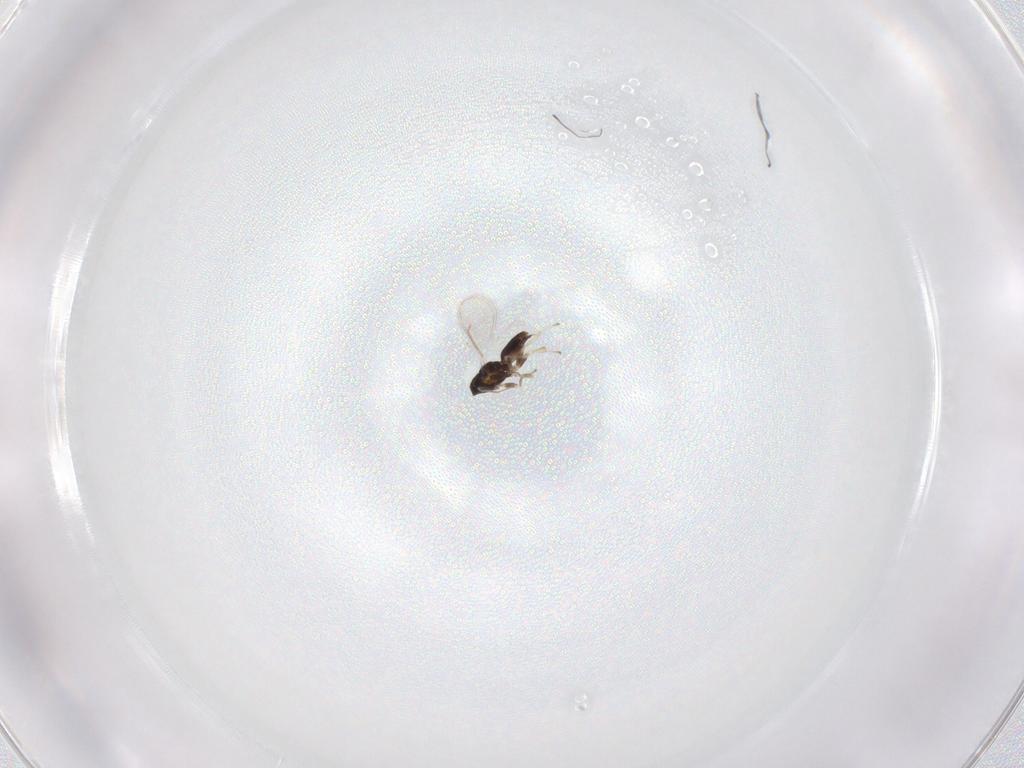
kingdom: Animalia
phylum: Arthropoda
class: Insecta
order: Hymenoptera
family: Eulophidae
